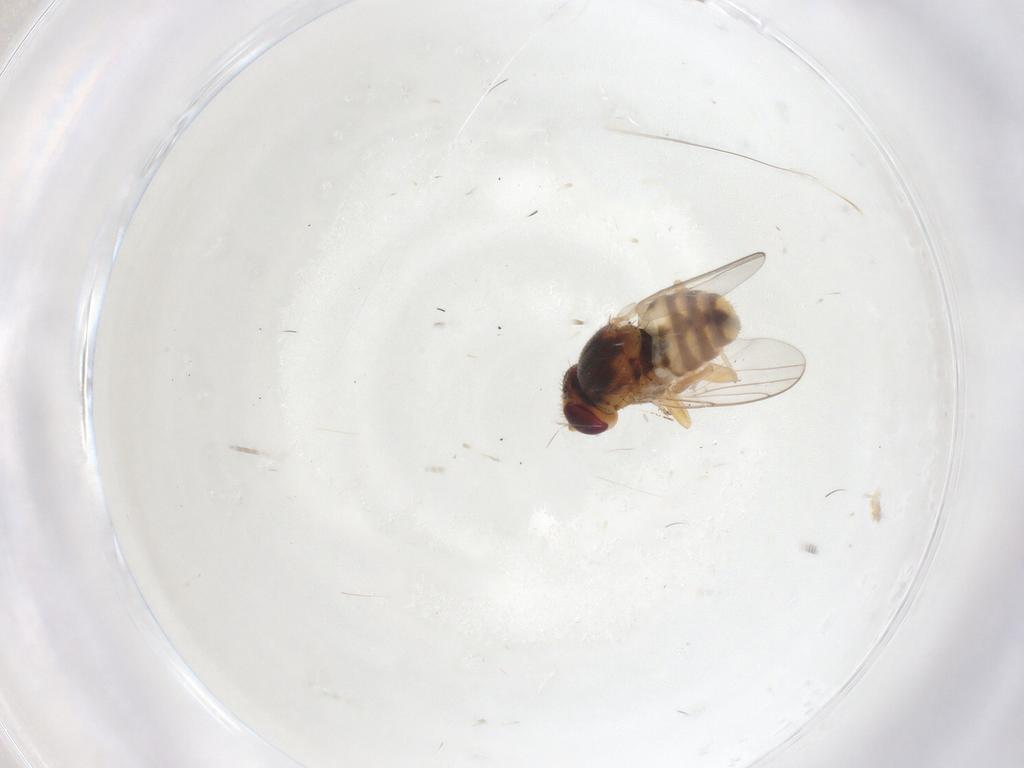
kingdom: Animalia
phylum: Arthropoda
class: Insecta
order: Diptera
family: Chloropidae
